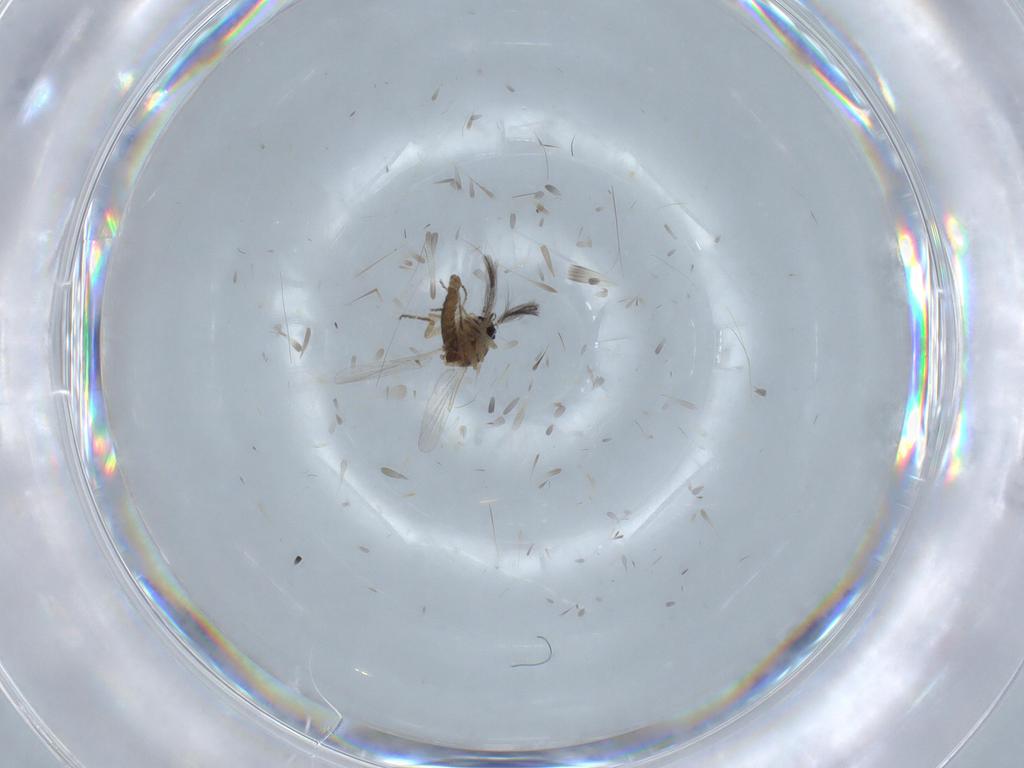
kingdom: Animalia
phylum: Arthropoda
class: Insecta
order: Diptera
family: Ceratopogonidae
